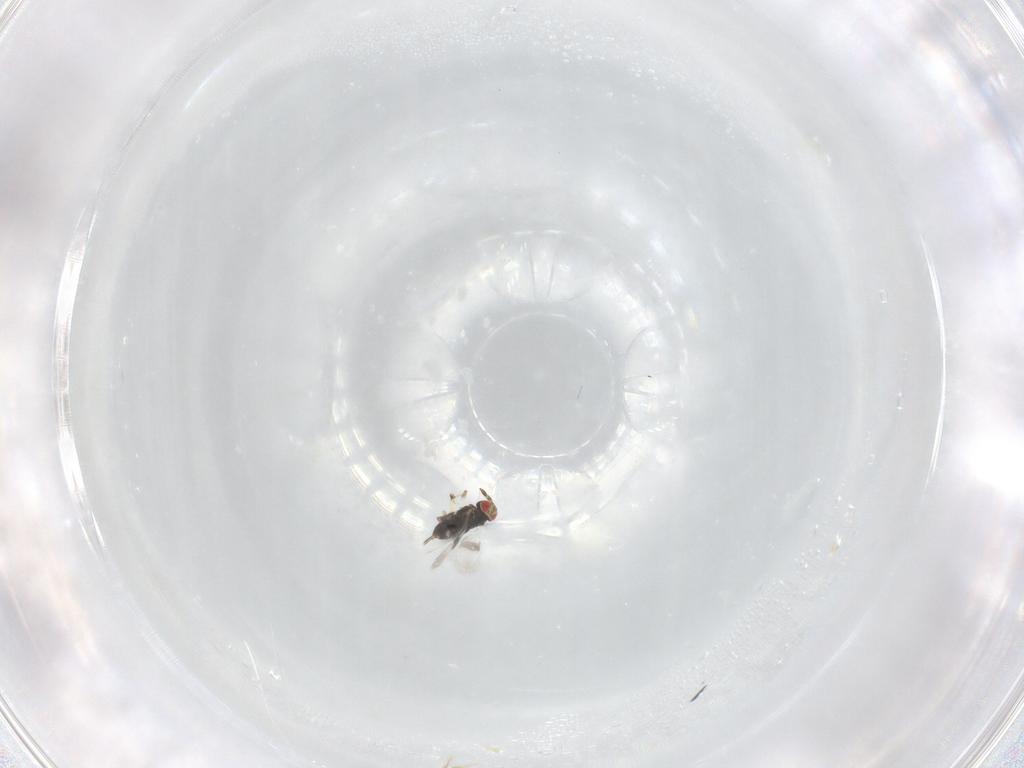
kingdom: Animalia
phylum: Arthropoda
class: Insecta
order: Hymenoptera
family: Azotidae
